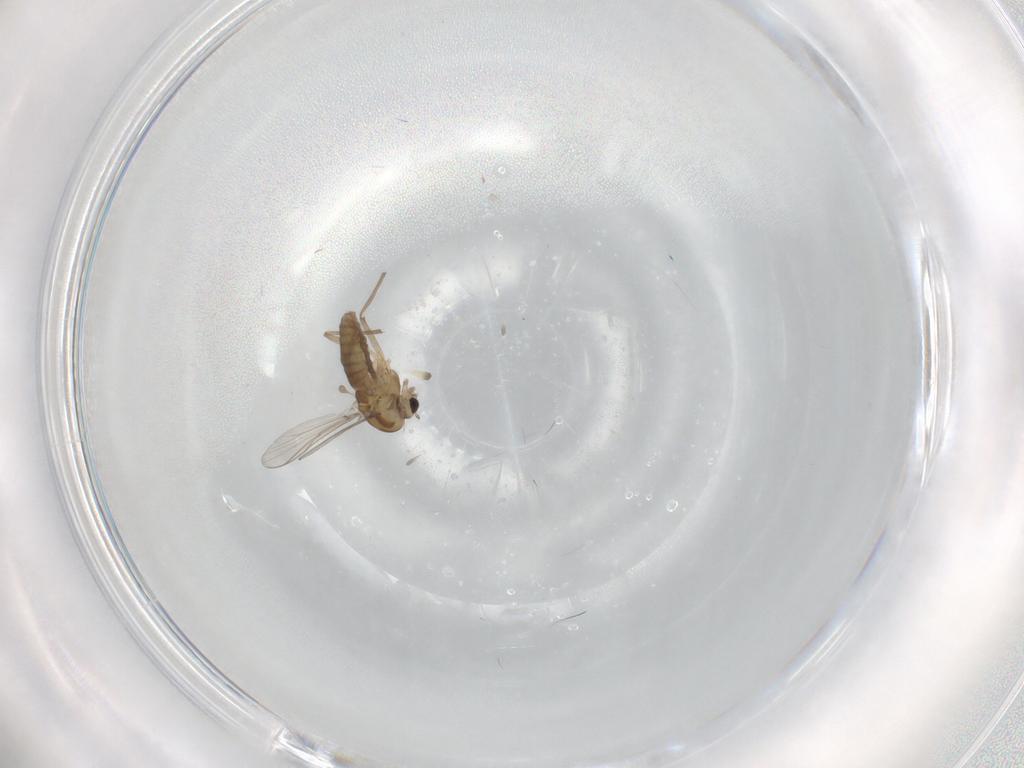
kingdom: Animalia
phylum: Arthropoda
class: Insecta
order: Diptera
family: Chironomidae
